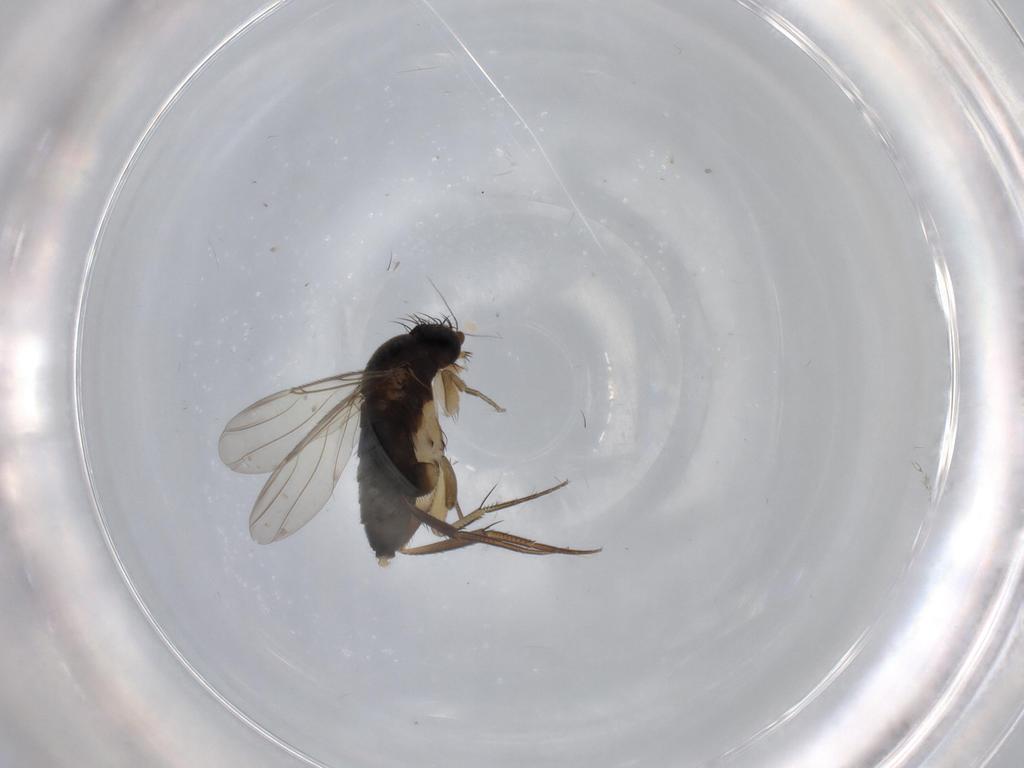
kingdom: Animalia
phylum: Arthropoda
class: Insecta
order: Diptera
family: Phoridae
